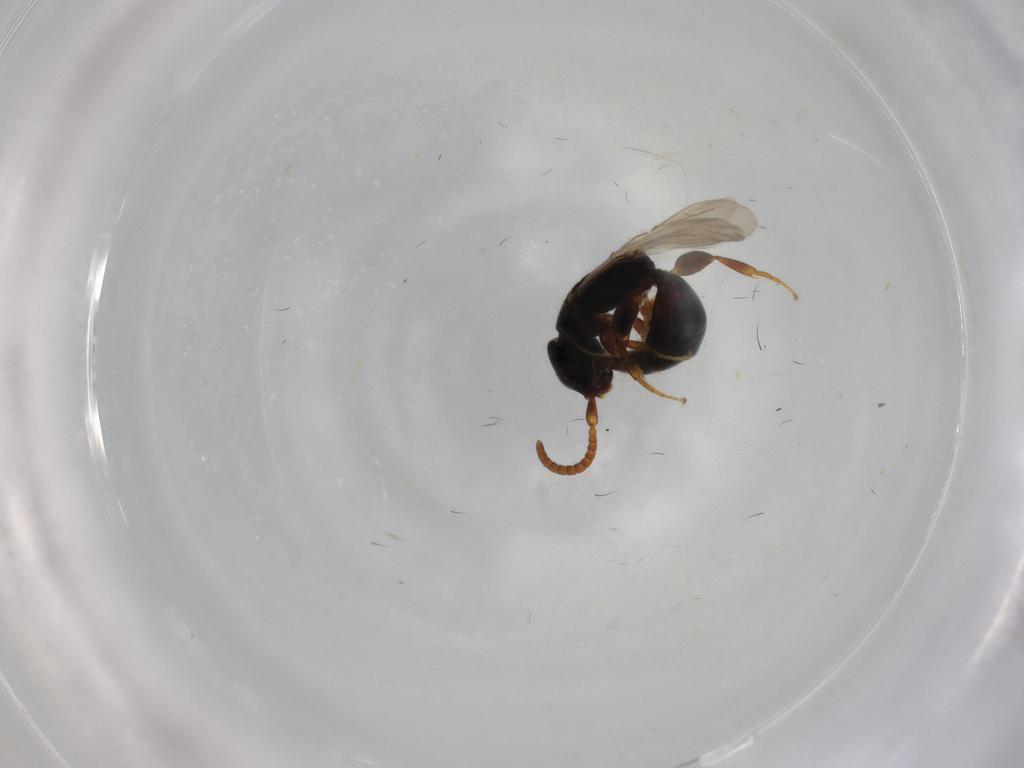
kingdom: Animalia
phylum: Arthropoda
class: Insecta
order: Hymenoptera
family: Bethylidae
